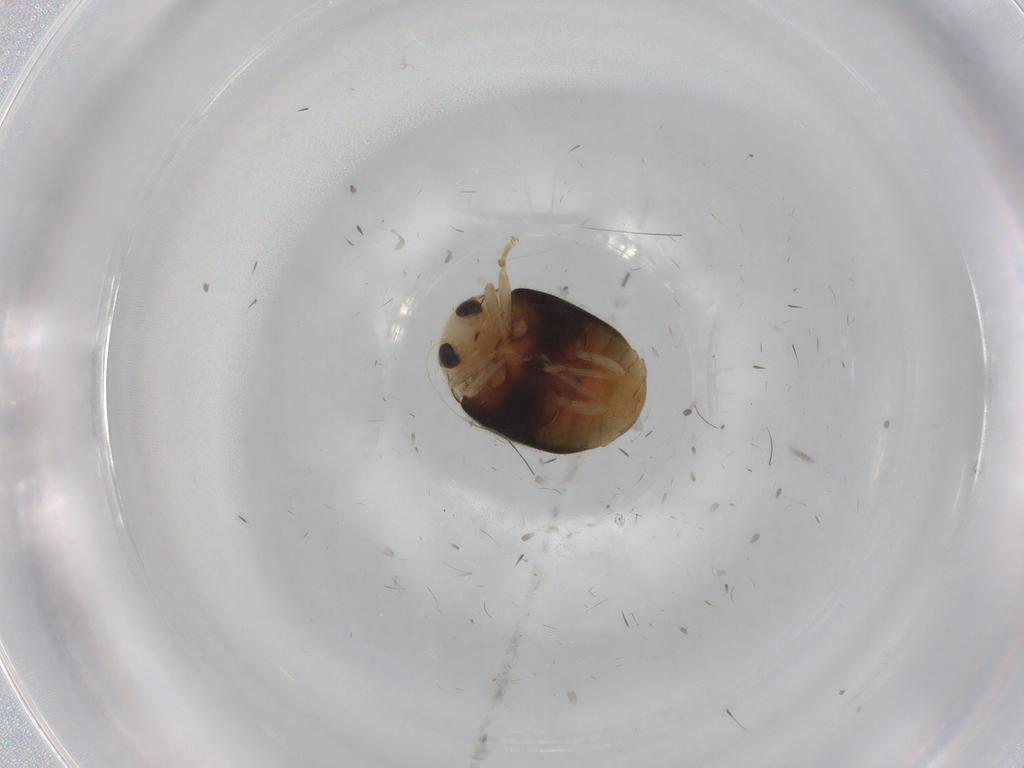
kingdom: Animalia
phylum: Arthropoda
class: Insecta
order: Coleoptera
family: Coccinellidae
